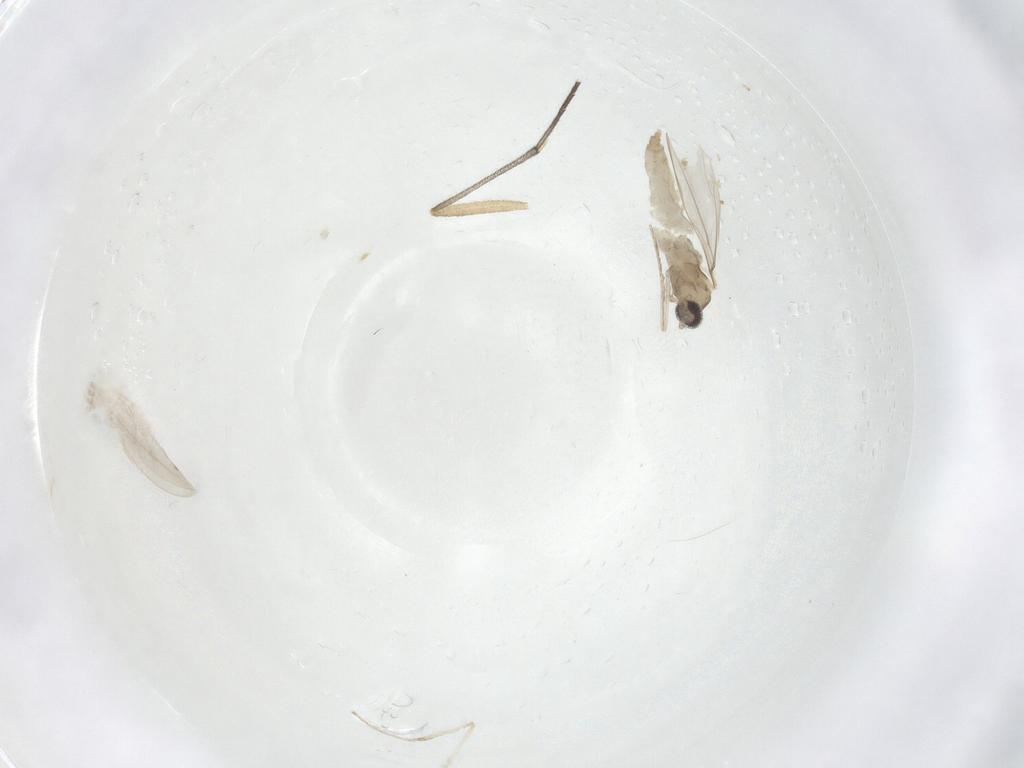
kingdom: Animalia
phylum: Arthropoda
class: Insecta
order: Diptera
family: Cecidomyiidae
